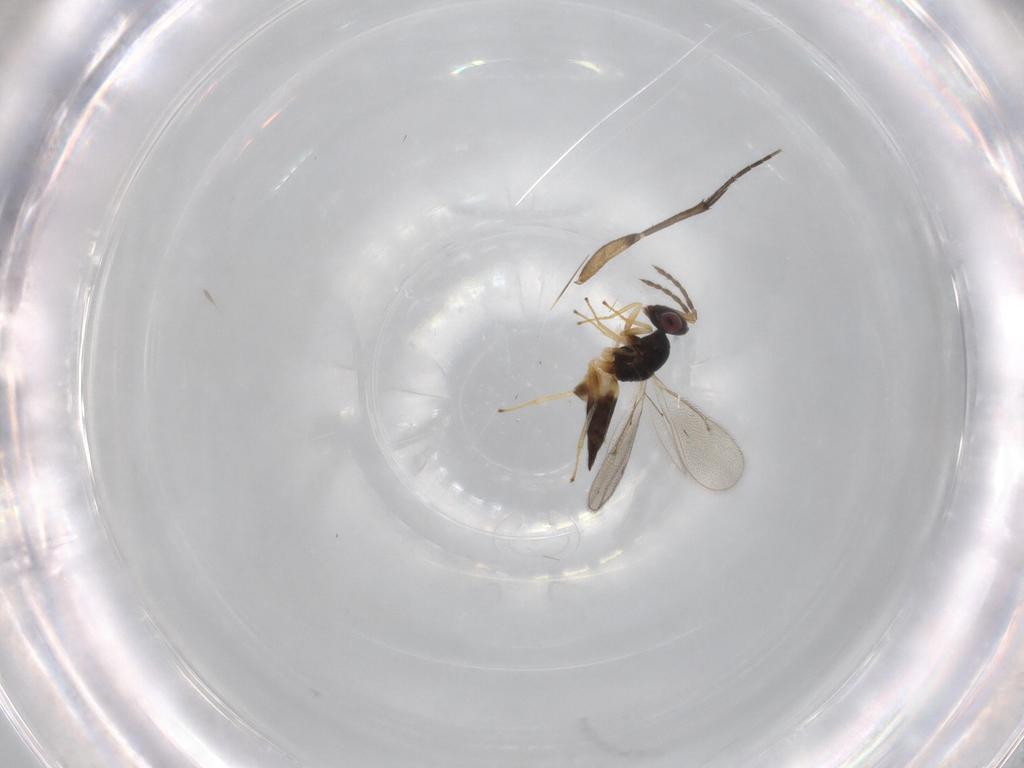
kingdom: Animalia
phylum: Arthropoda
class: Insecta
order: Hymenoptera
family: Eulophidae
